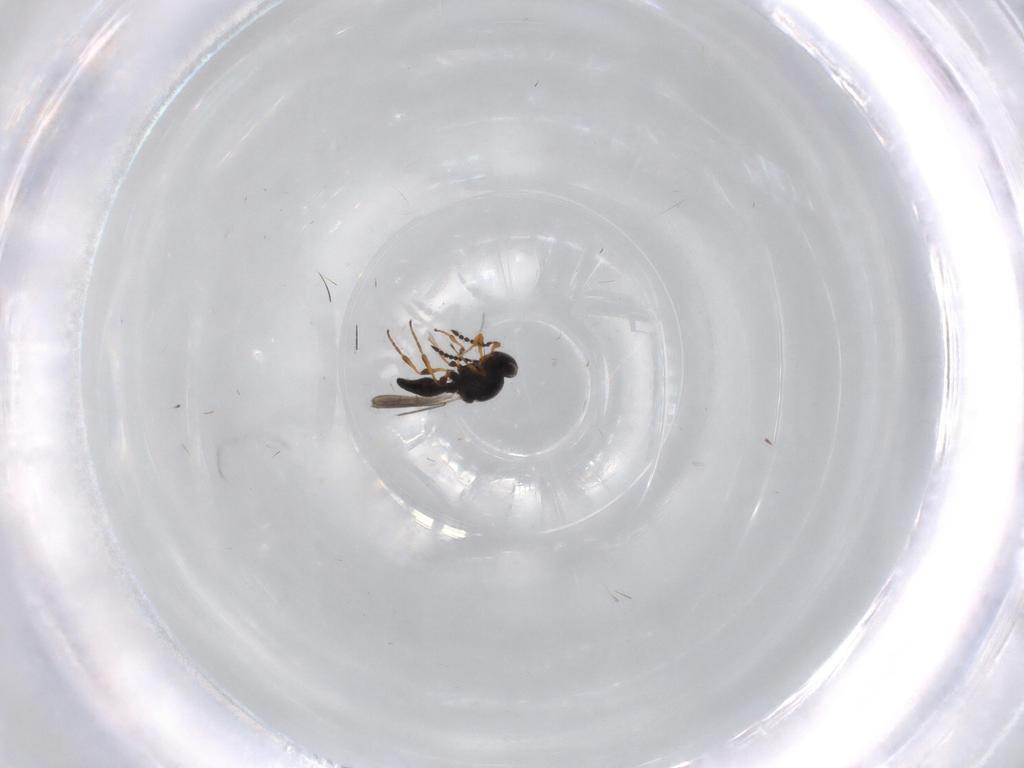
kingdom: Animalia
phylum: Arthropoda
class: Insecta
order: Hymenoptera
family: Platygastridae
